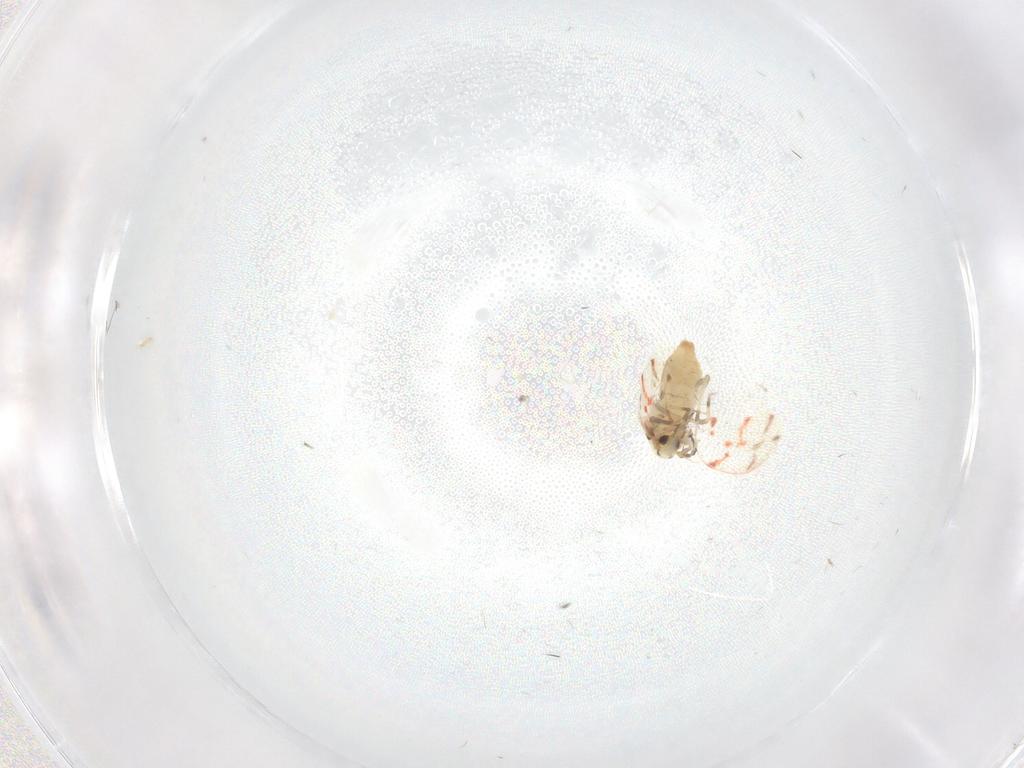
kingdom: Animalia
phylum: Arthropoda
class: Insecta
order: Hemiptera
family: Aleyrodidae
